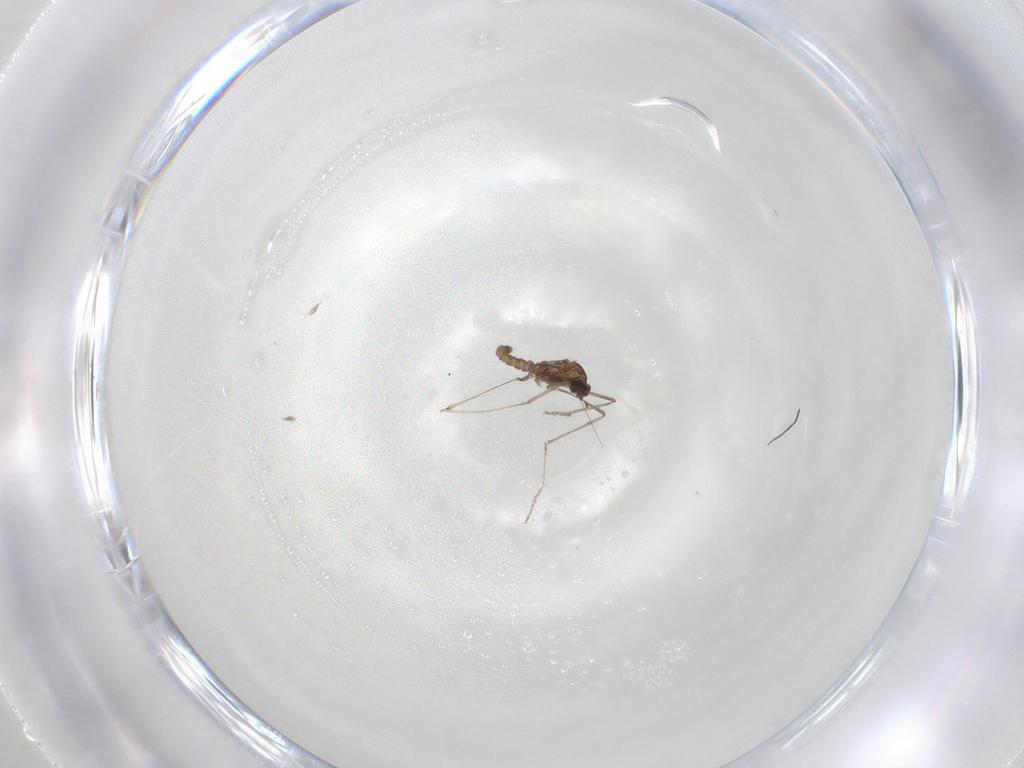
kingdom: Animalia
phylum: Arthropoda
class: Insecta
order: Diptera
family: Cecidomyiidae
